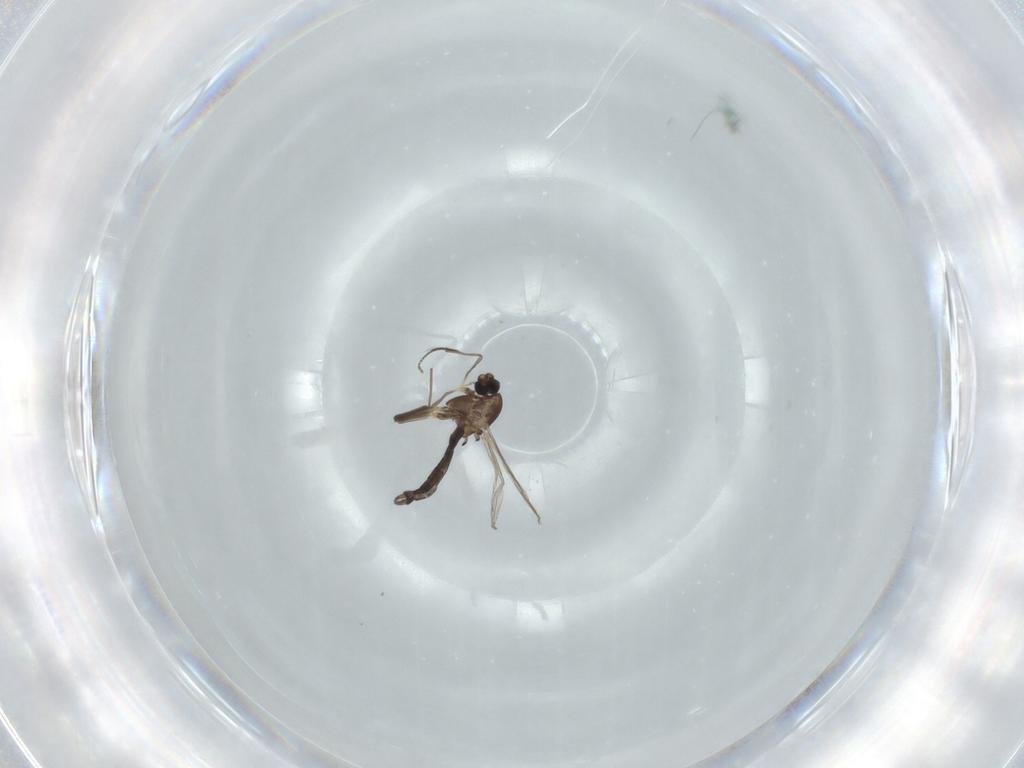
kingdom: Animalia
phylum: Arthropoda
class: Insecta
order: Diptera
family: Chironomidae
